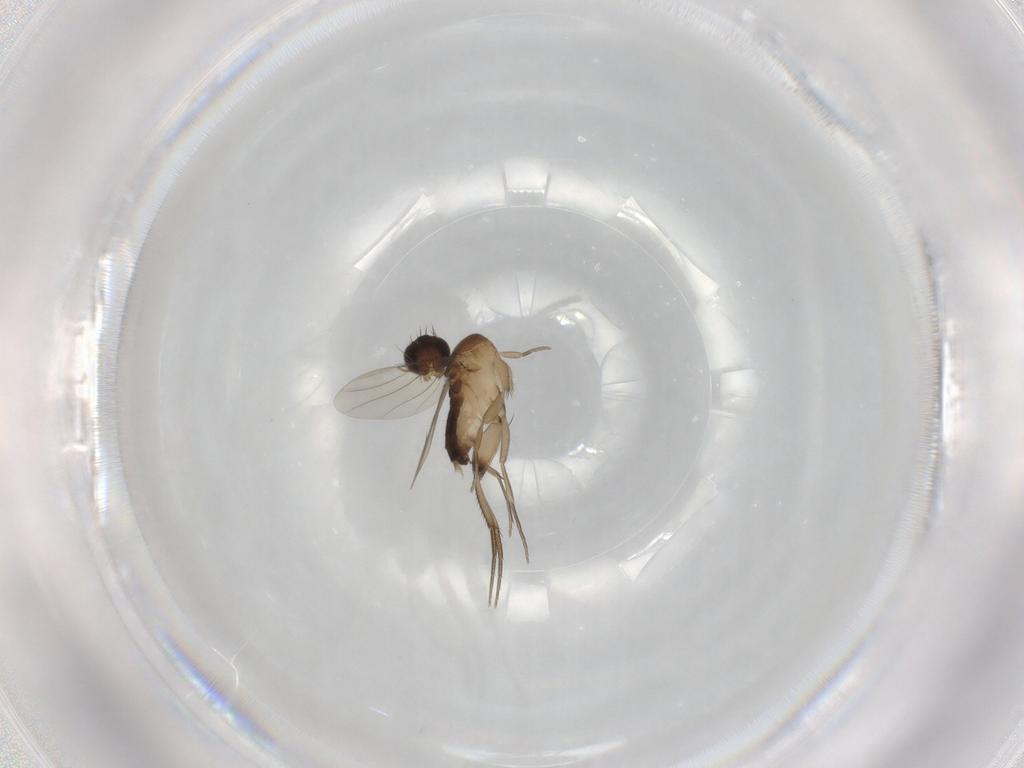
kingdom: Animalia
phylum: Arthropoda
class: Insecta
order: Diptera
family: Phoridae
